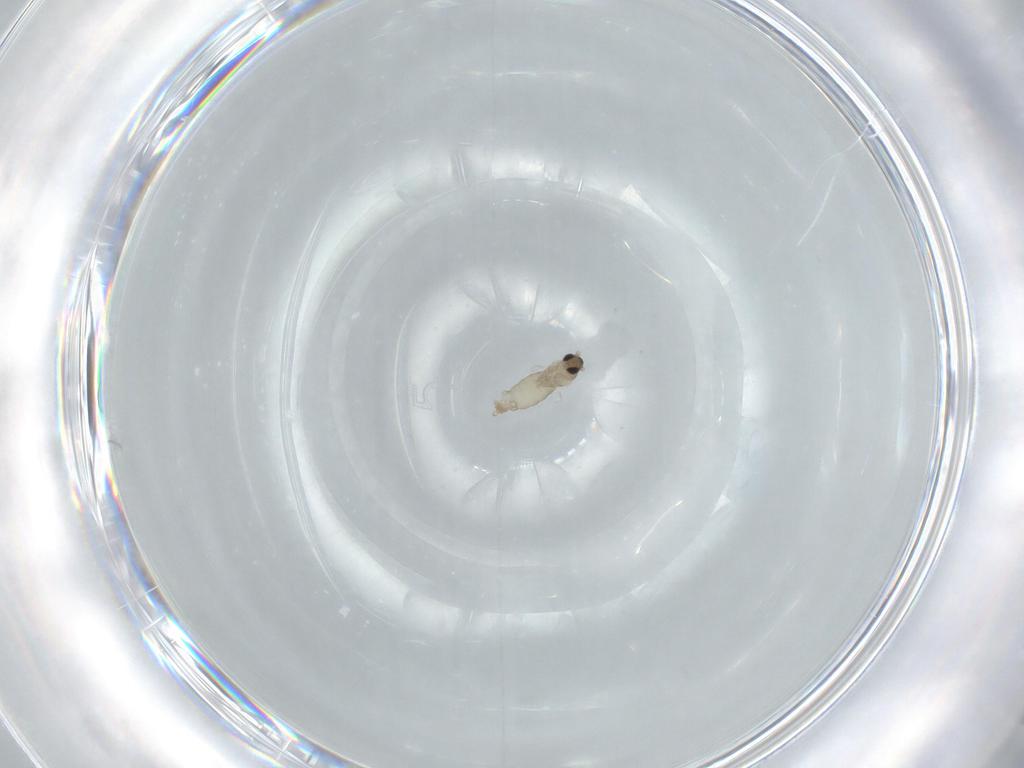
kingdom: Animalia
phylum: Arthropoda
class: Insecta
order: Diptera
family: Cecidomyiidae
